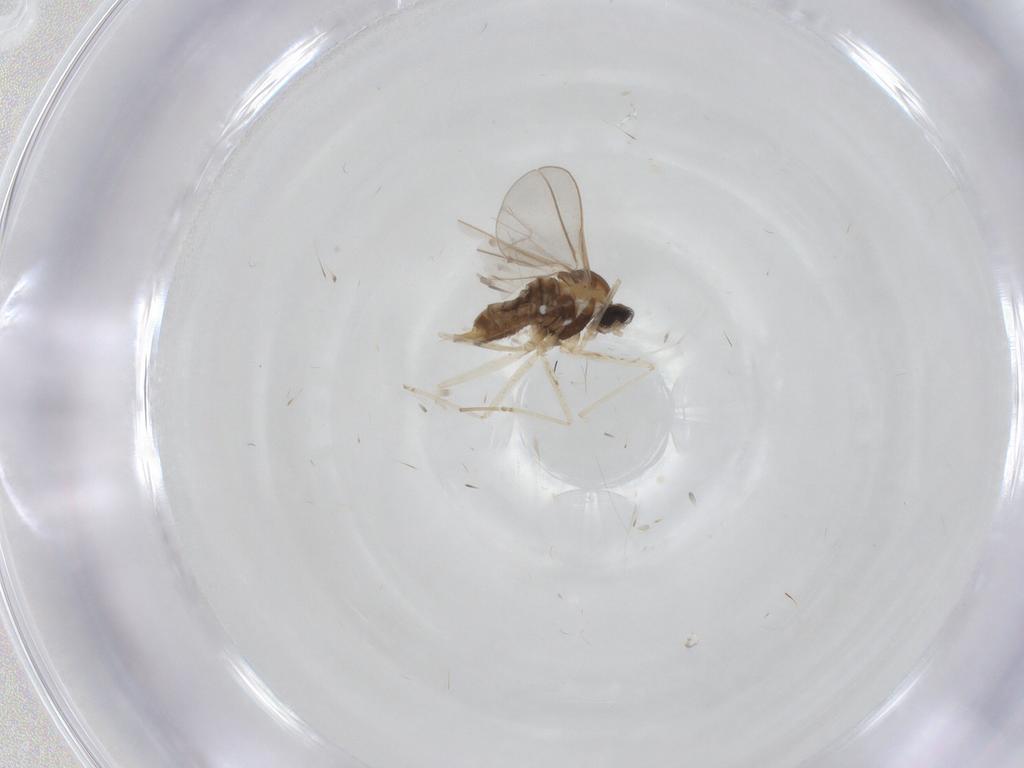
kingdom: Animalia
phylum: Arthropoda
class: Insecta
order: Diptera
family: Cecidomyiidae
